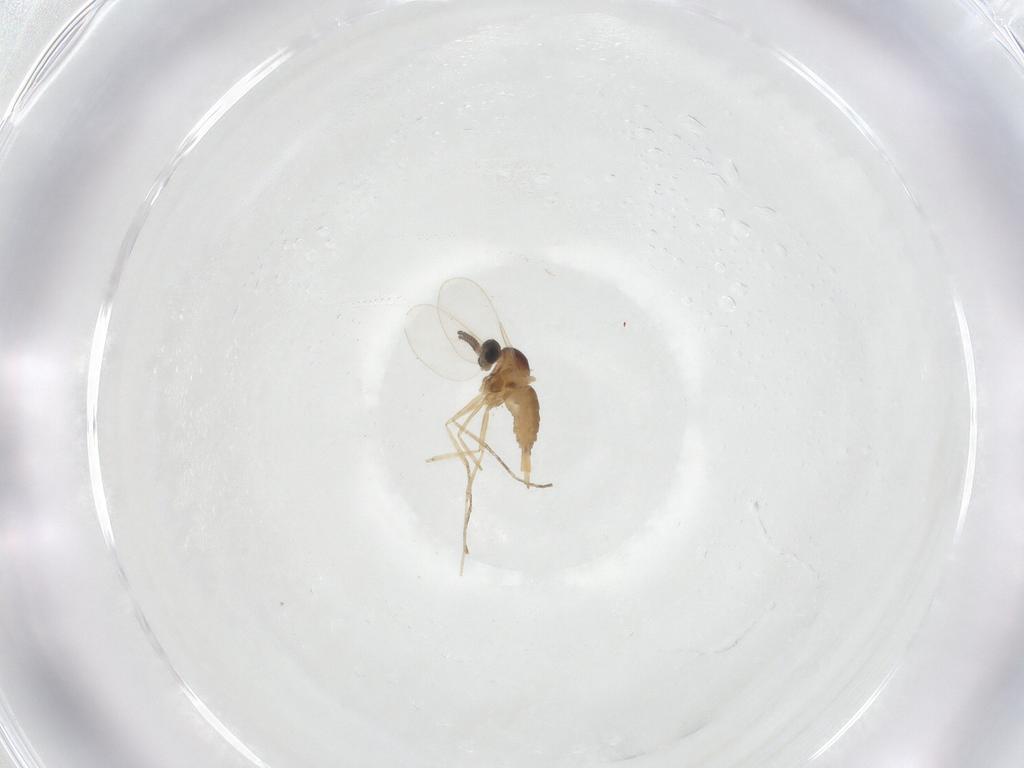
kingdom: Animalia
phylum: Arthropoda
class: Insecta
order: Diptera
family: Cecidomyiidae
